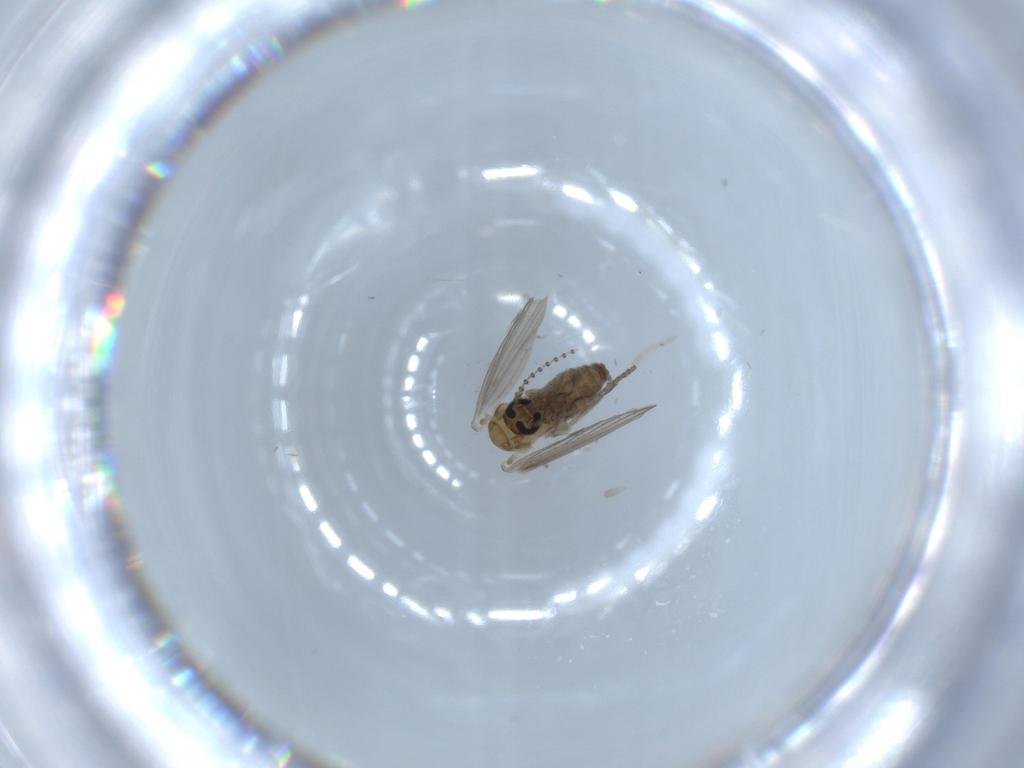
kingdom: Animalia
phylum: Arthropoda
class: Insecta
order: Diptera
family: Psychodidae
